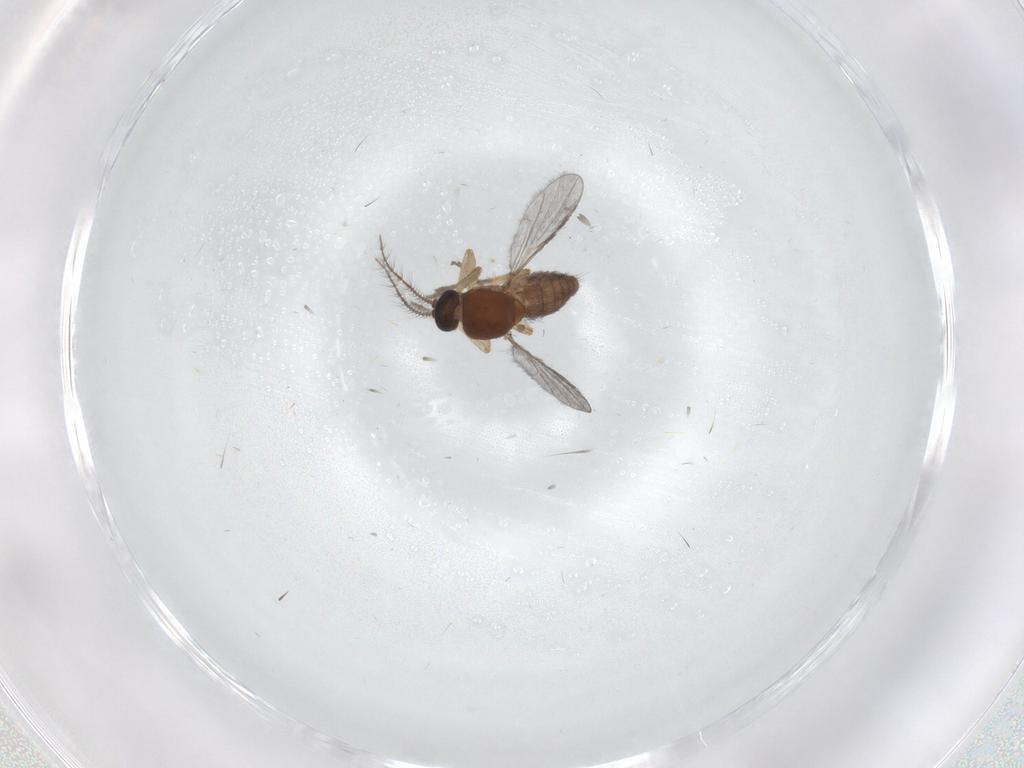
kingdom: Animalia
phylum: Arthropoda
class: Insecta
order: Diptera
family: Ceratopogonidae
